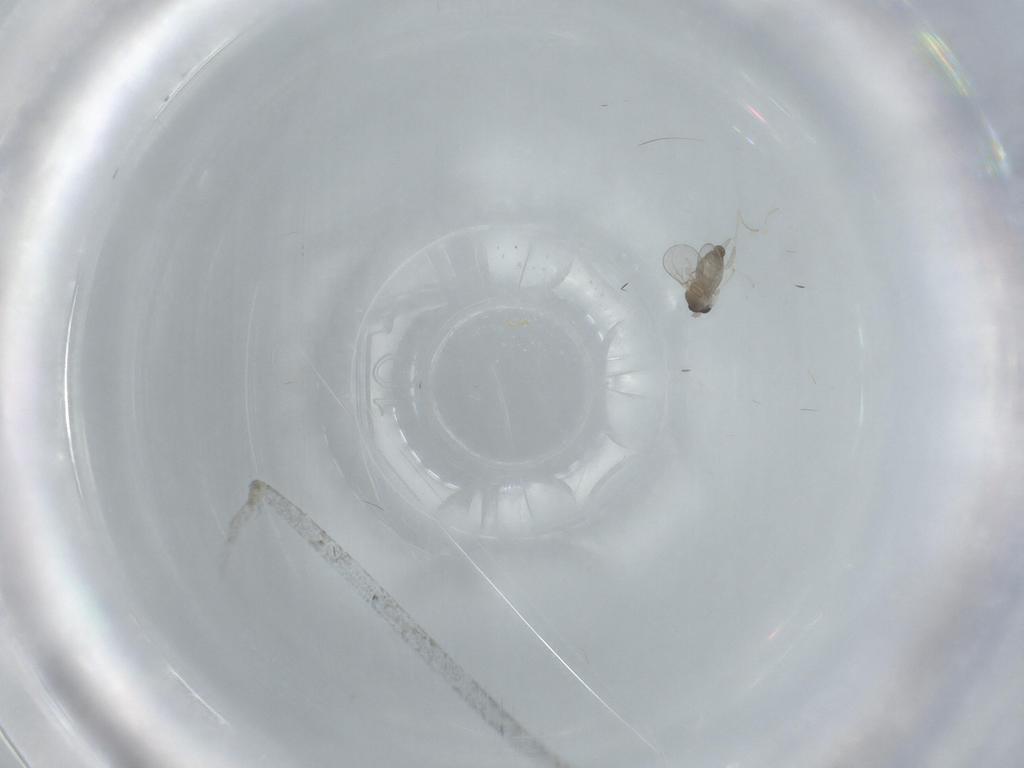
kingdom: Animalia
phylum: Arthropoda
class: Insecta
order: Diptera
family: Cecidomyiidae
